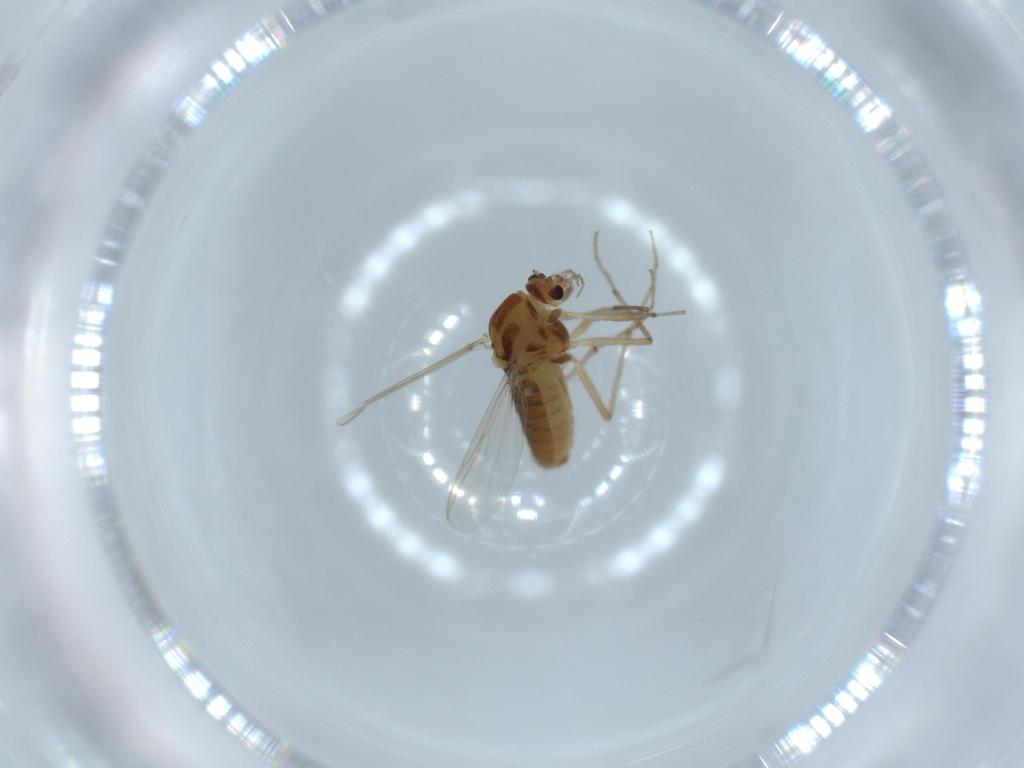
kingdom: Animalia
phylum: Arthropoda
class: Insecta
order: Diptera
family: Chironomidae
